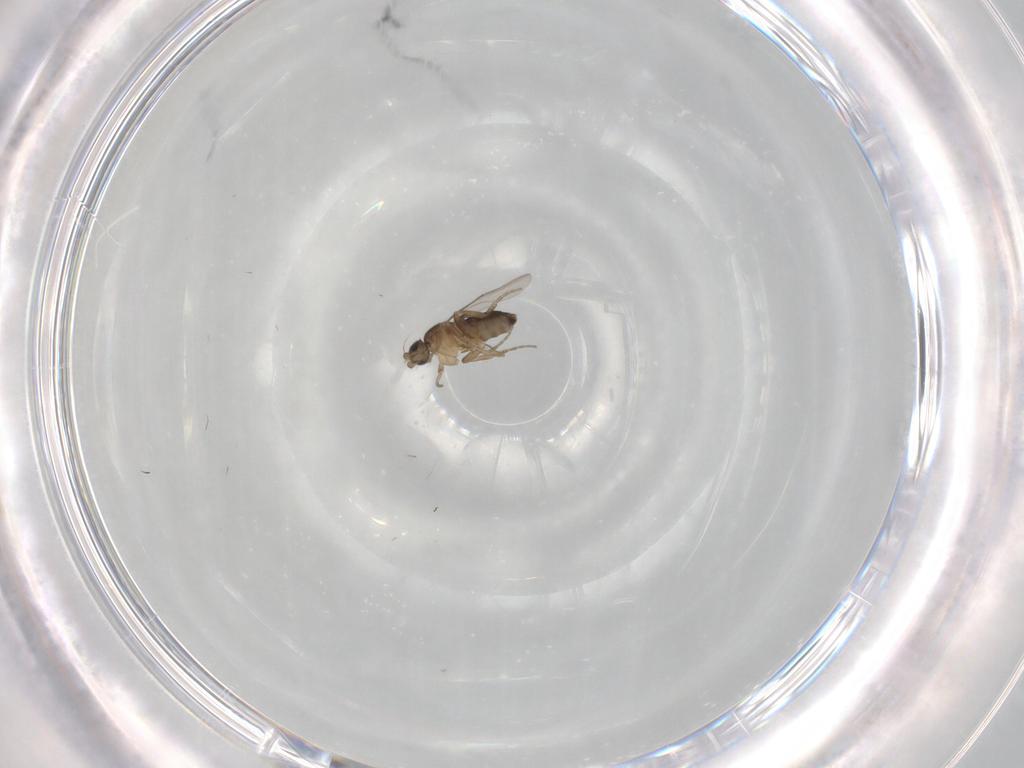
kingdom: Animalia
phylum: Arthropoda
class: Insecta
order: Diptera
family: Phoridae
